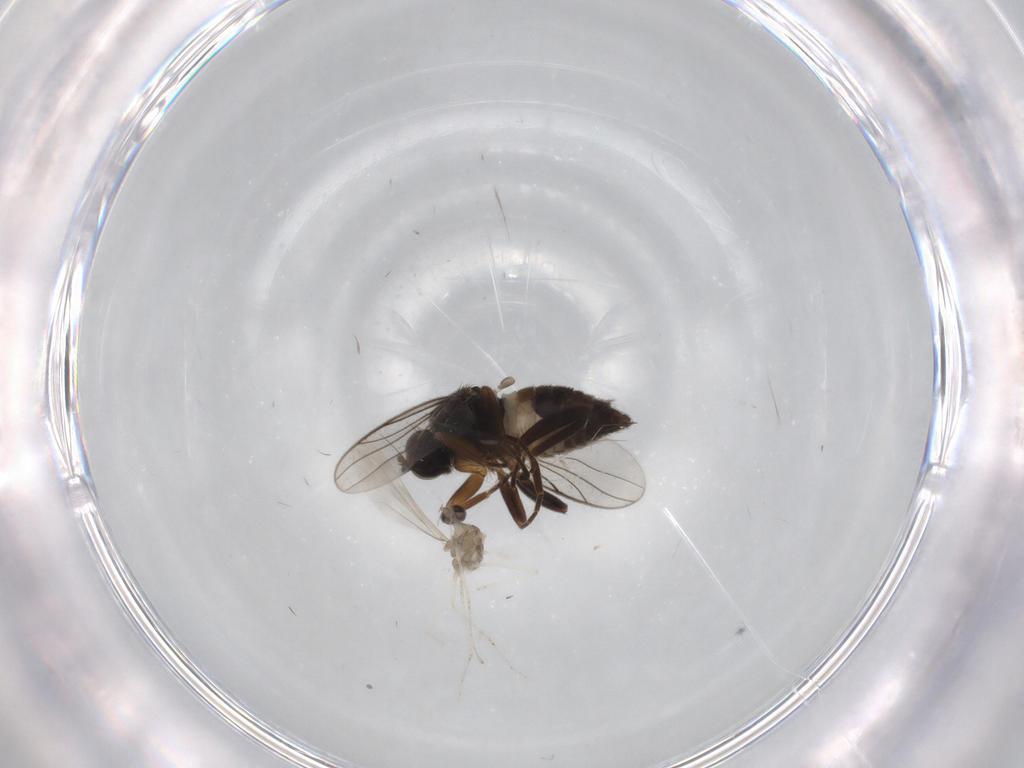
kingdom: Animalia
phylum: Arthropoda
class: Insecta
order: Diptera
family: Cecidomyiidae
